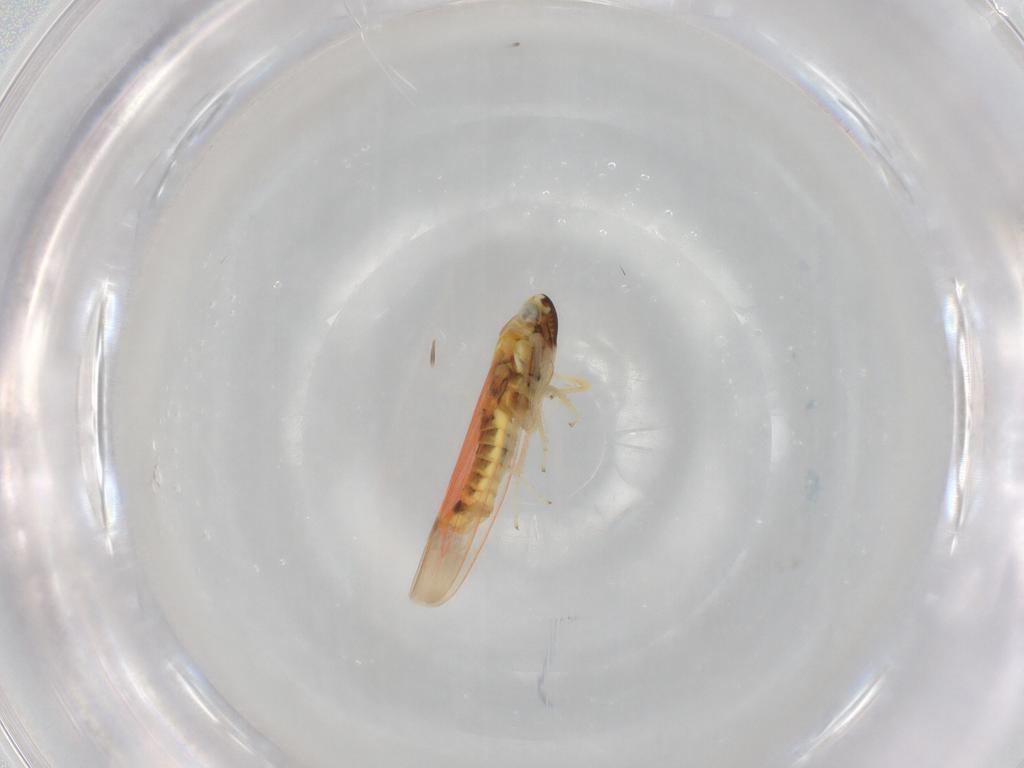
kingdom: Animalia
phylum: Arthropoda
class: Insecta
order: Hemiptera
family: Cicadellidae
